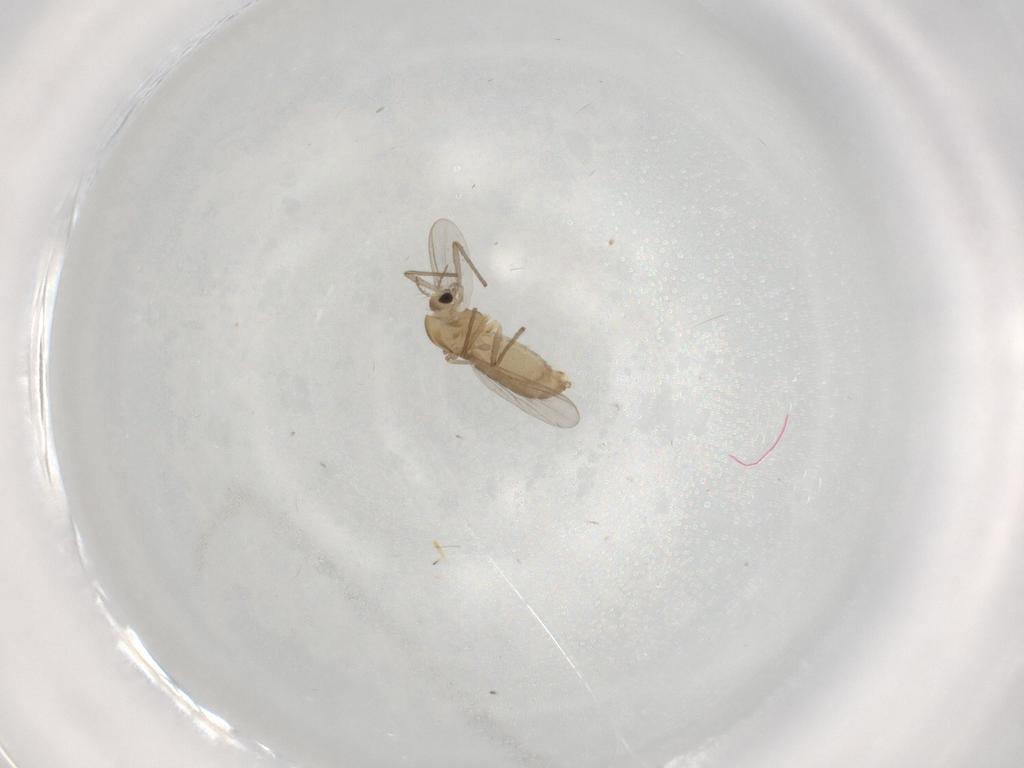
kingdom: Animalia
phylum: Arthropoda
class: Insecta
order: Diptera
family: Chironomidae
